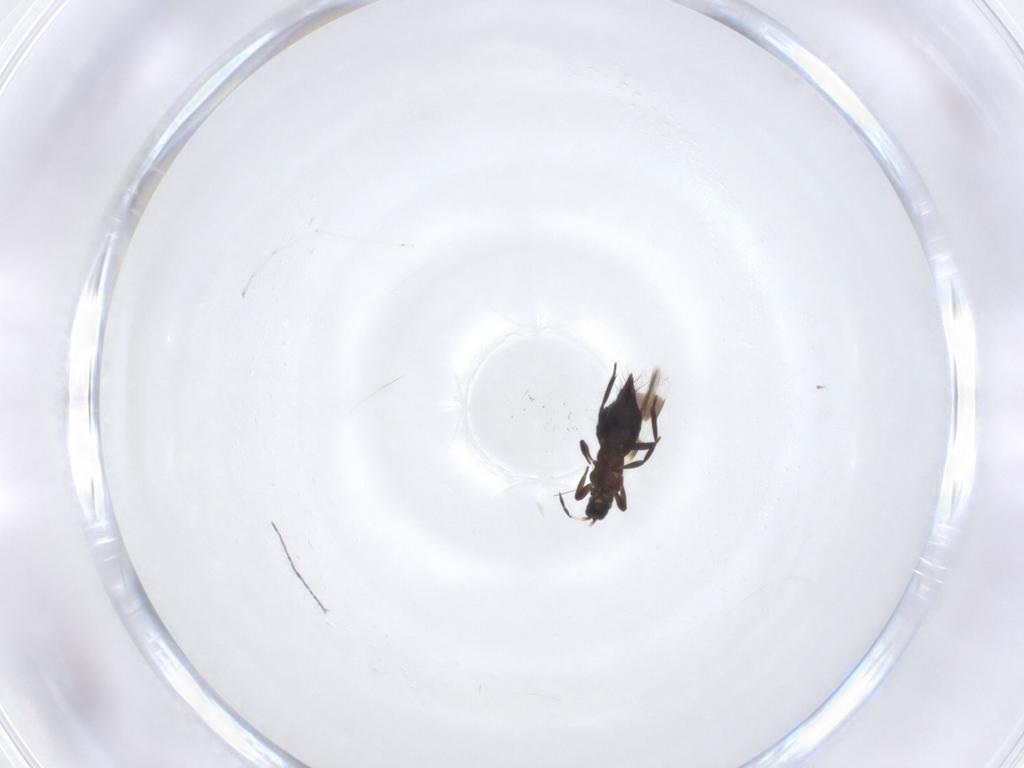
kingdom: Animalia
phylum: Arthropoda
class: Insecta
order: Thysanoptera
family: Aeolothripidae
